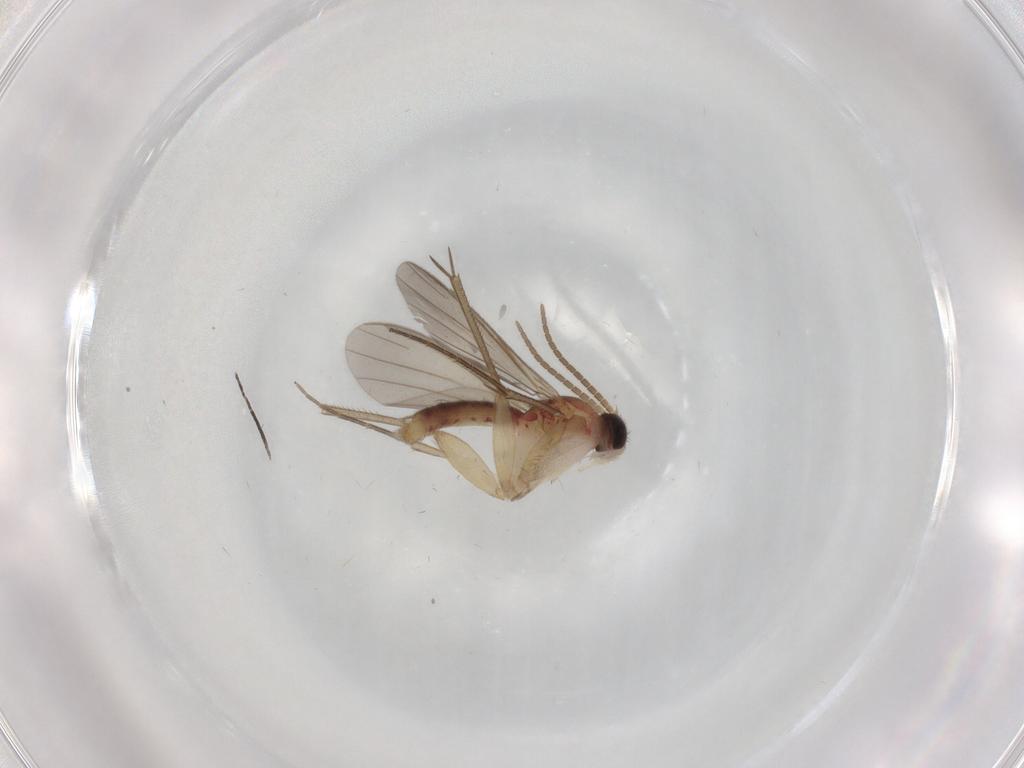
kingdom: Animalia
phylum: Arthropoda
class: Insecta
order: Diptera
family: Mycetophilidae
